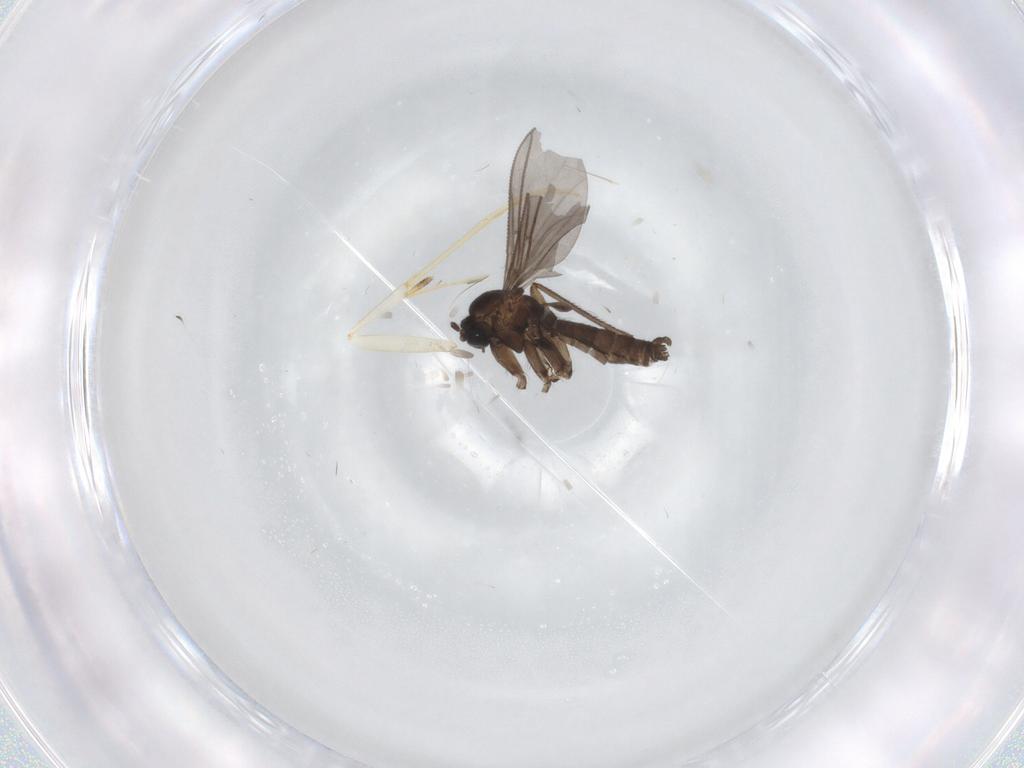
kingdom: Animalia
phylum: Arthropoda
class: Insecta
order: Diptera
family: Sciaridae
